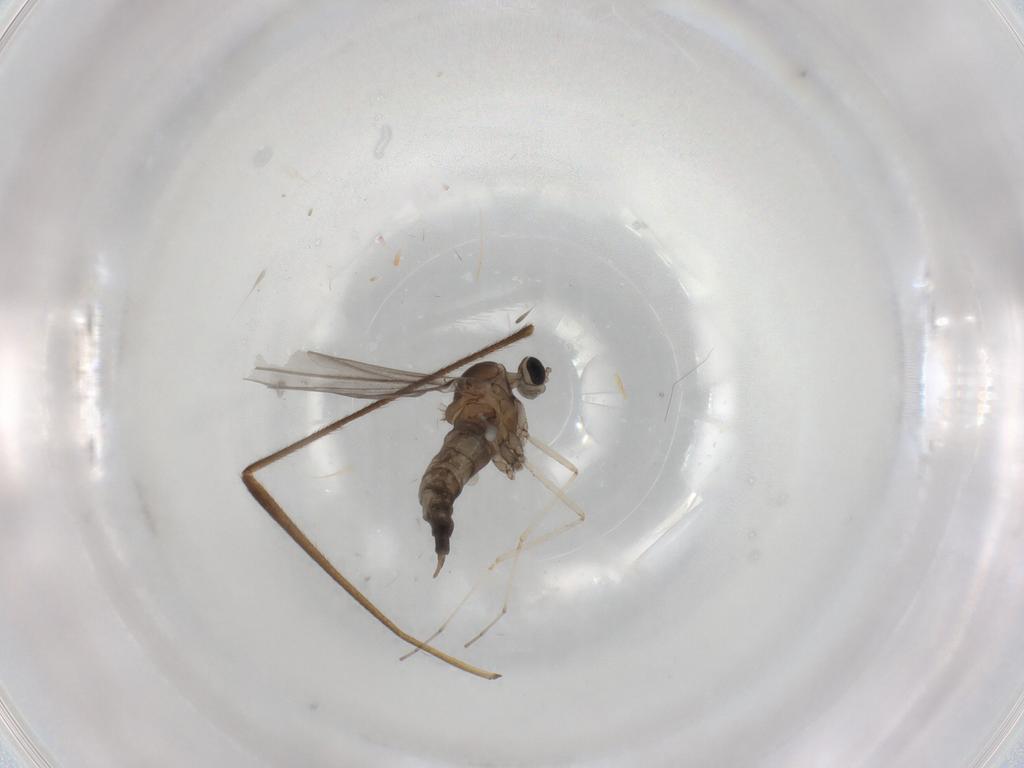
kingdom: Animalia
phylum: Arthropoda
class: Insecta
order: Diptera
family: Cecidomyiidae
